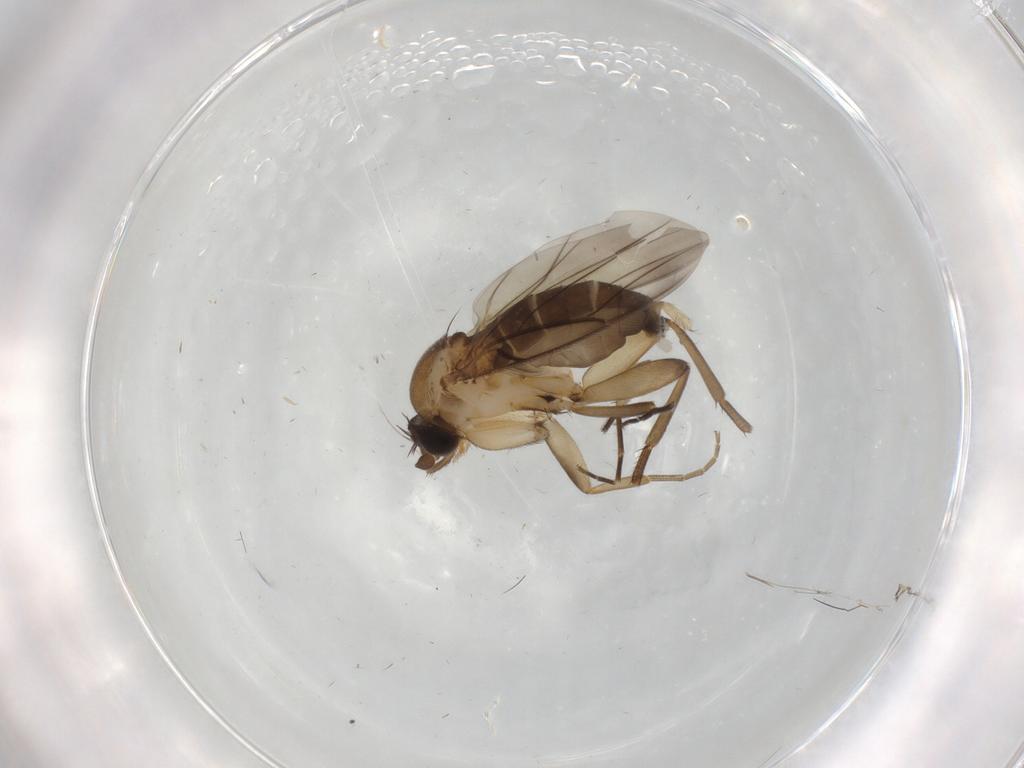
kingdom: Animalia
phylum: Arthropoda
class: Insecta
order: Diptera
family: Phoridae
